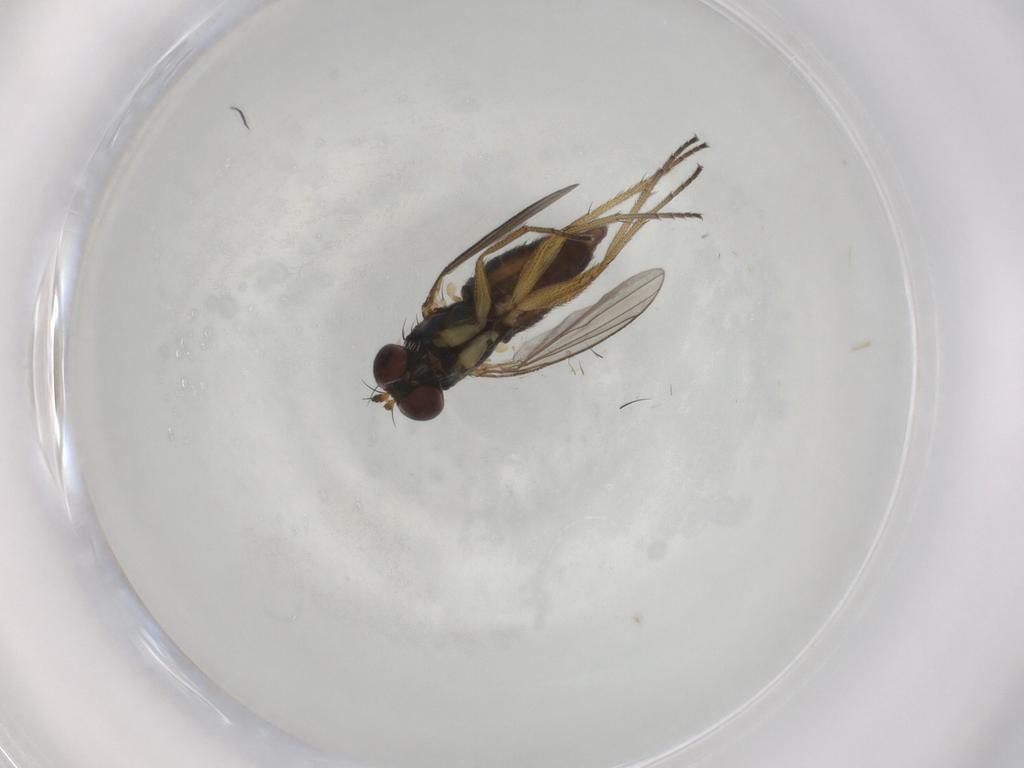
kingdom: Animalia
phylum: Arthropoda
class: Insecta
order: Diptera
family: Dolichopodidae
